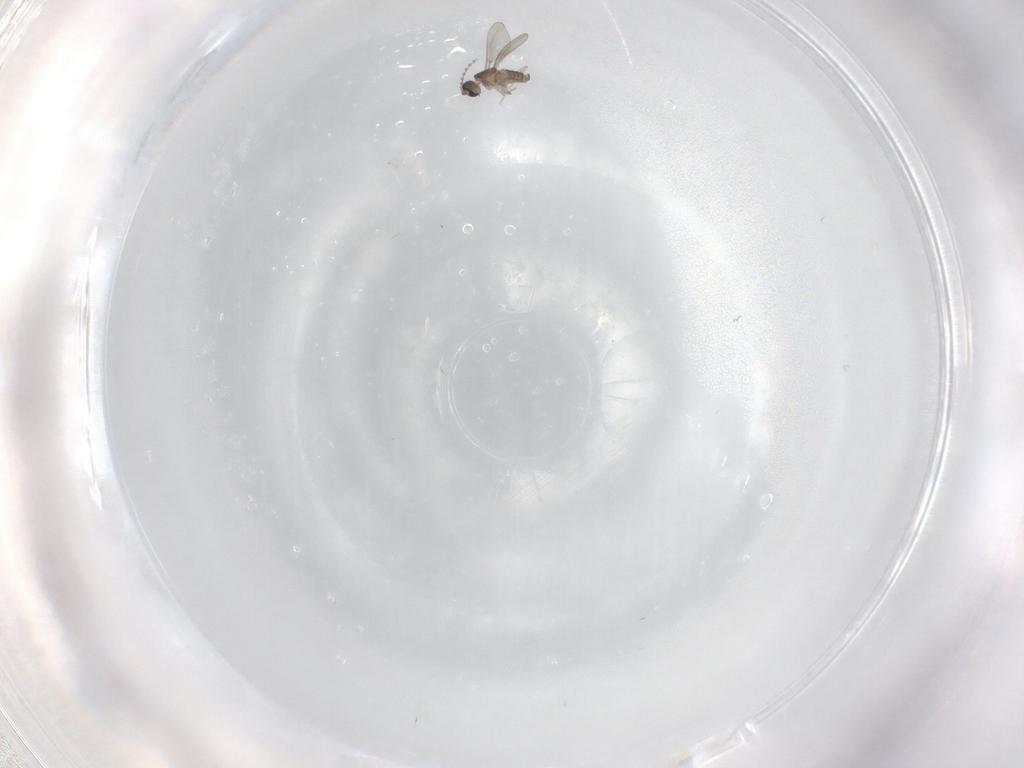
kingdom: Animalia
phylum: Arthropoda
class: Insecta
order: Diptera
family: Cecidomyiidae
